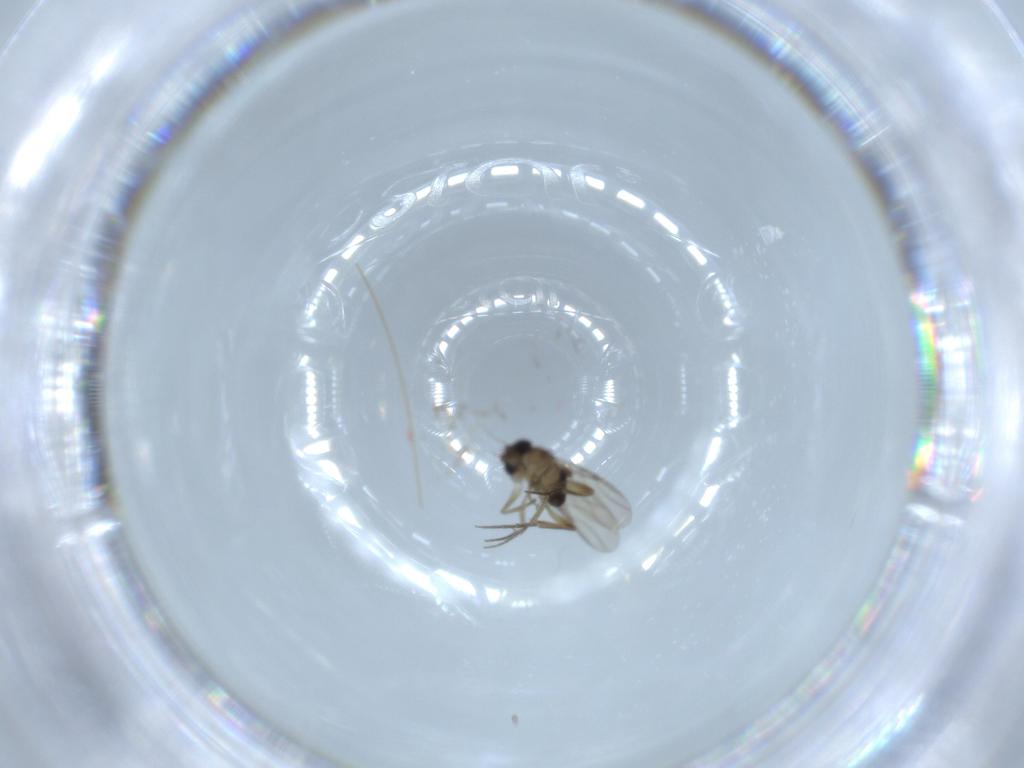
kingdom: Animalia
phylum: Arthropoda
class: Insecta
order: Diptera
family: Phoridae
